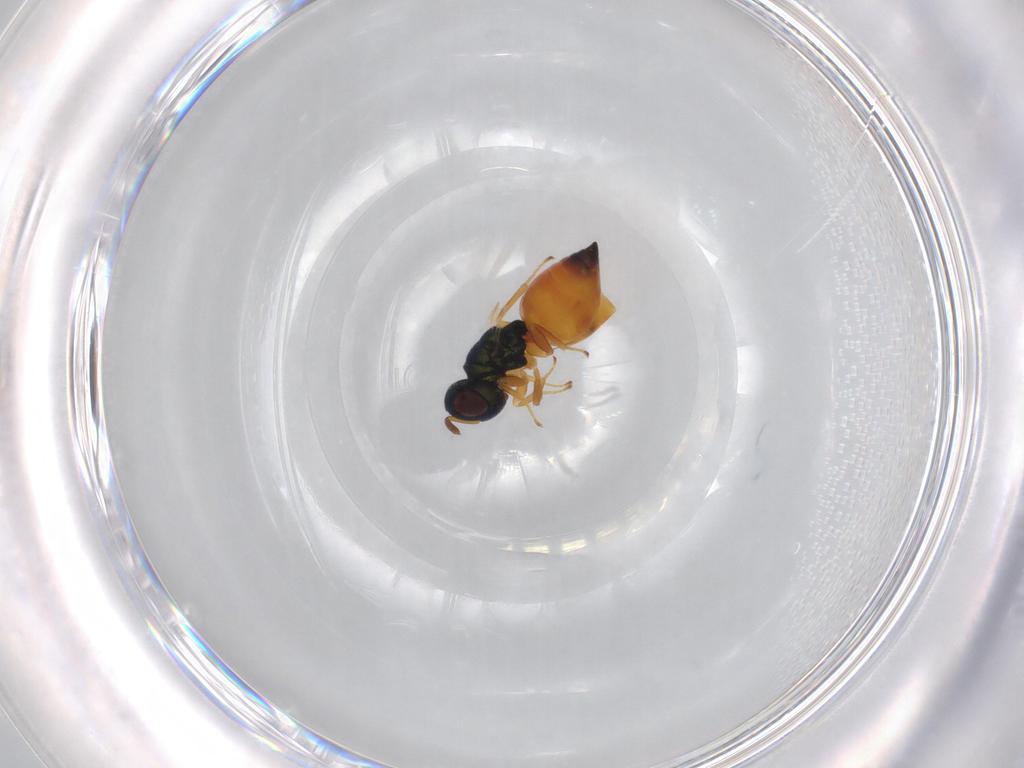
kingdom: Animalia
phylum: Arthropoda
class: Insecta
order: Hymenoptera
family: Pteromalidae
